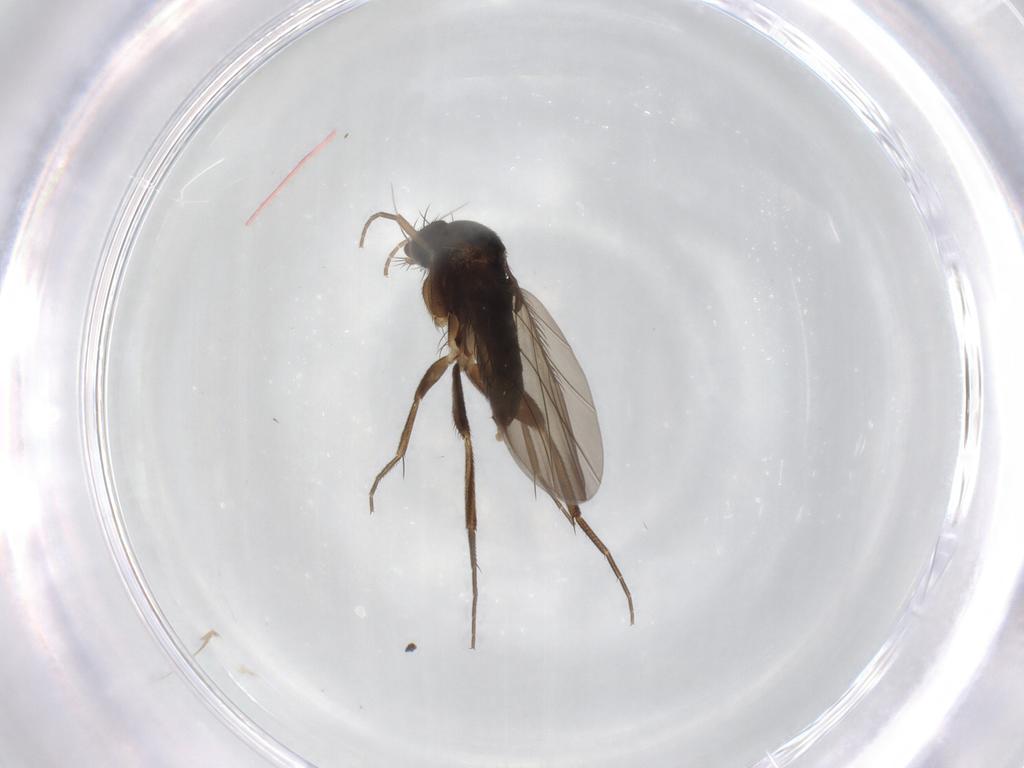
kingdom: Animalia
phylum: Arthropoda
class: Insecta
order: Diptera
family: Phoridae
